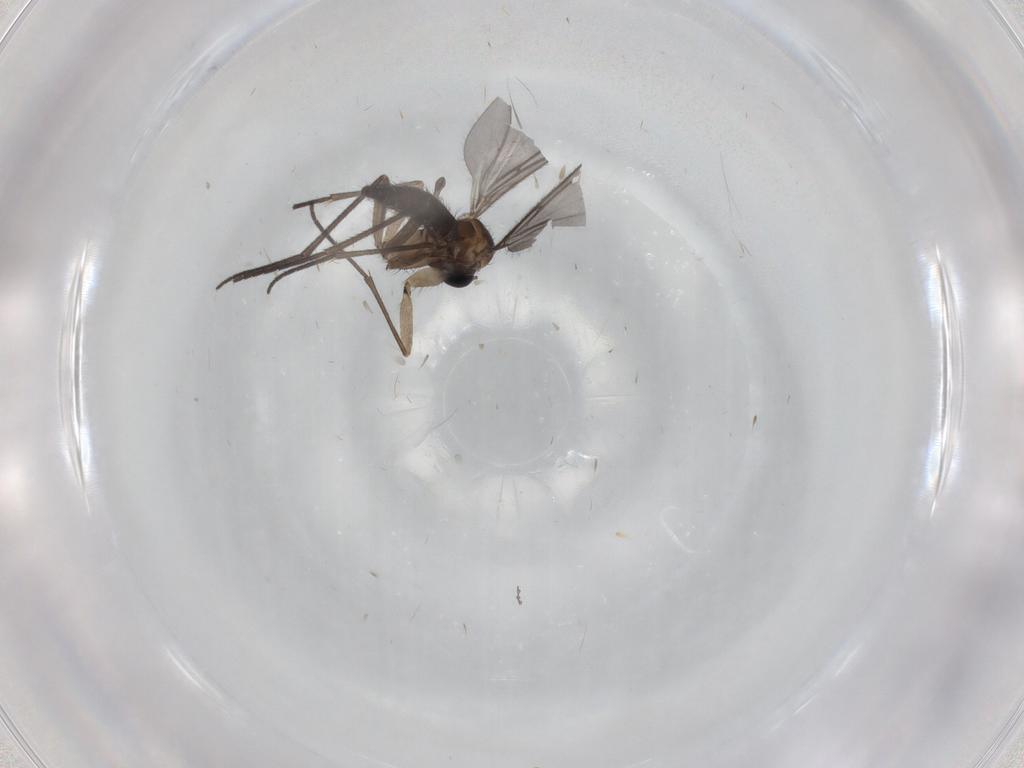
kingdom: Animalia
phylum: Arthropoda
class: Insecta
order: Diptera
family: Sciaridae
